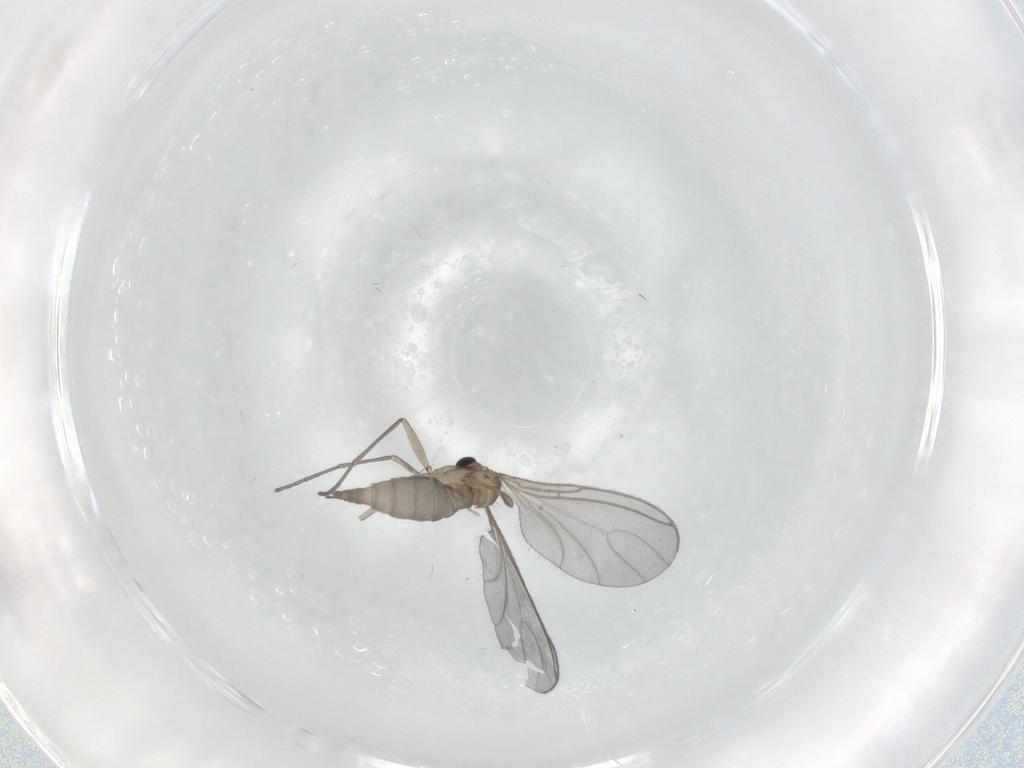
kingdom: Animalia
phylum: Arthropoda
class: Insecta
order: Diptera
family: Sciaridae
